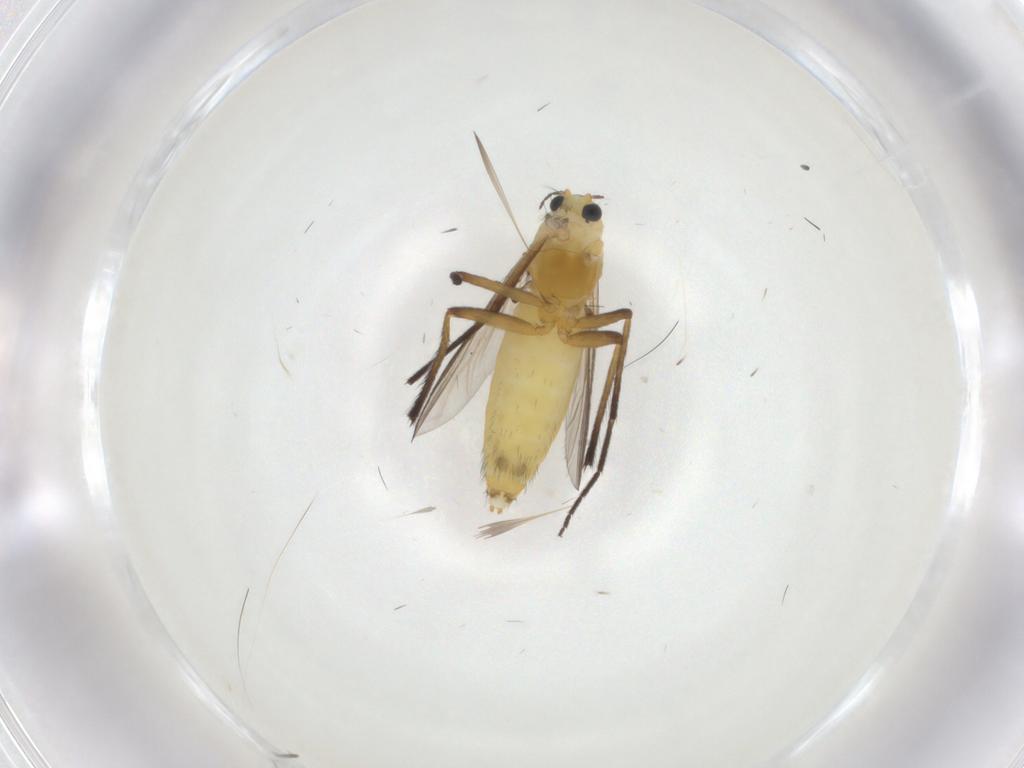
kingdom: Animalia
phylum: Arthropoda
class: Insecta
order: Diptera
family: Chironomidae
